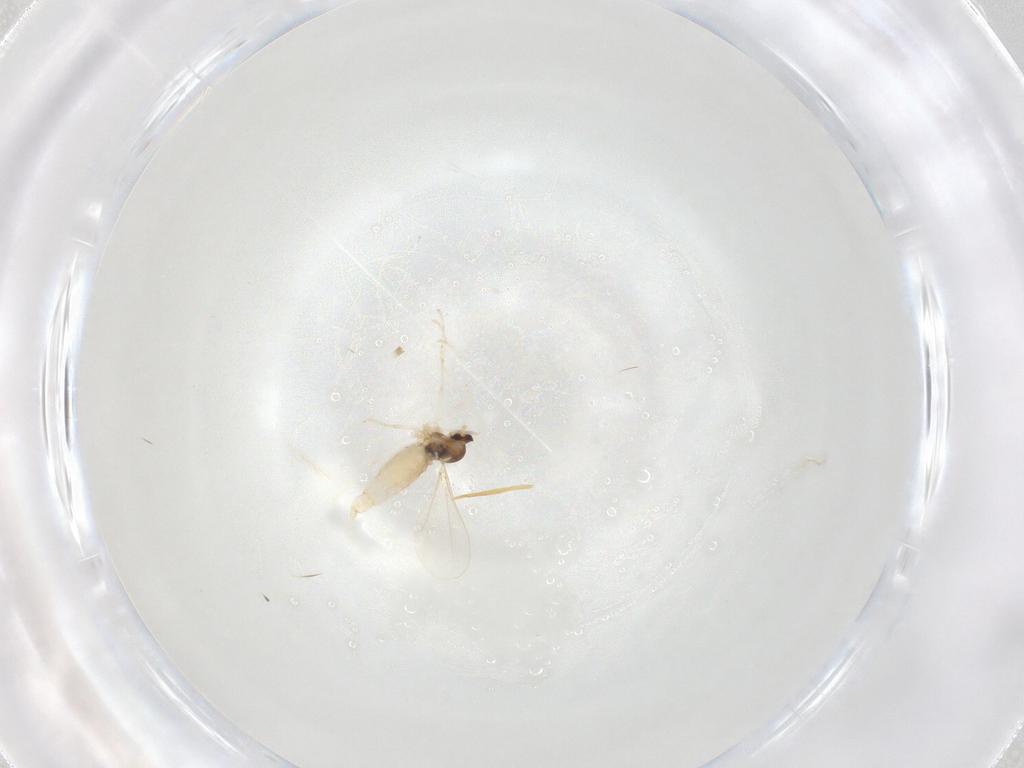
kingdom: Animalia
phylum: Arthropoda
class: Insecta
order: Diptera
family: Cecidomyiidae
